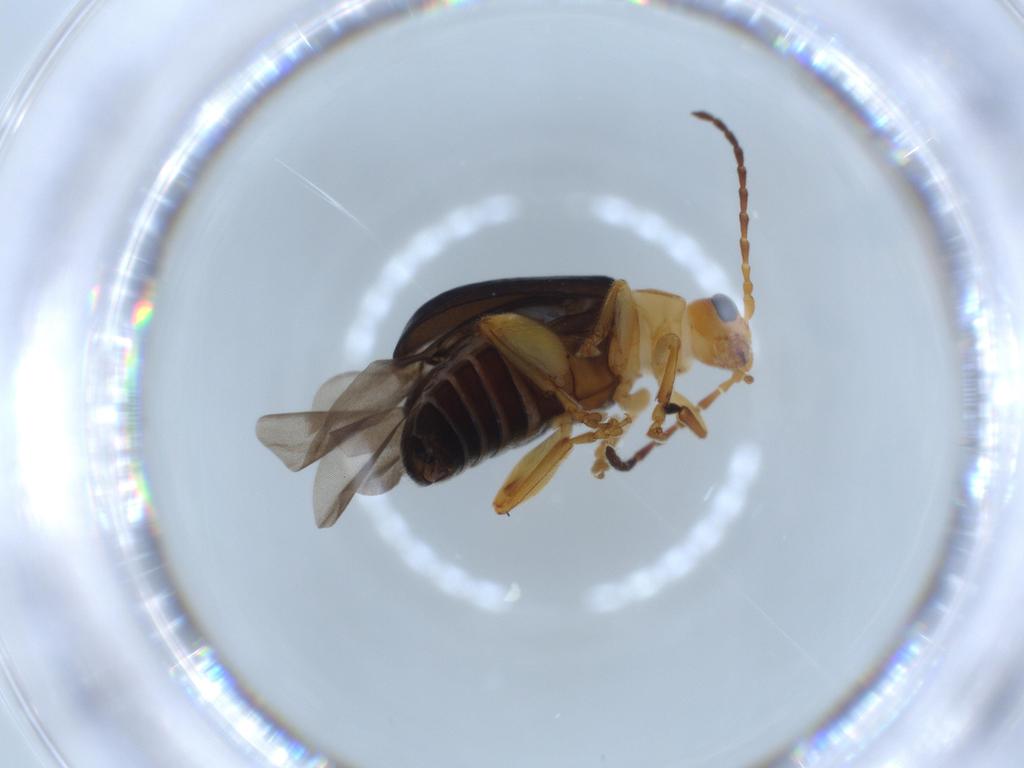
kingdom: Animalia
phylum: Arthropoda
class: Insecta
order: Coleoptera
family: Chrysomelidae
